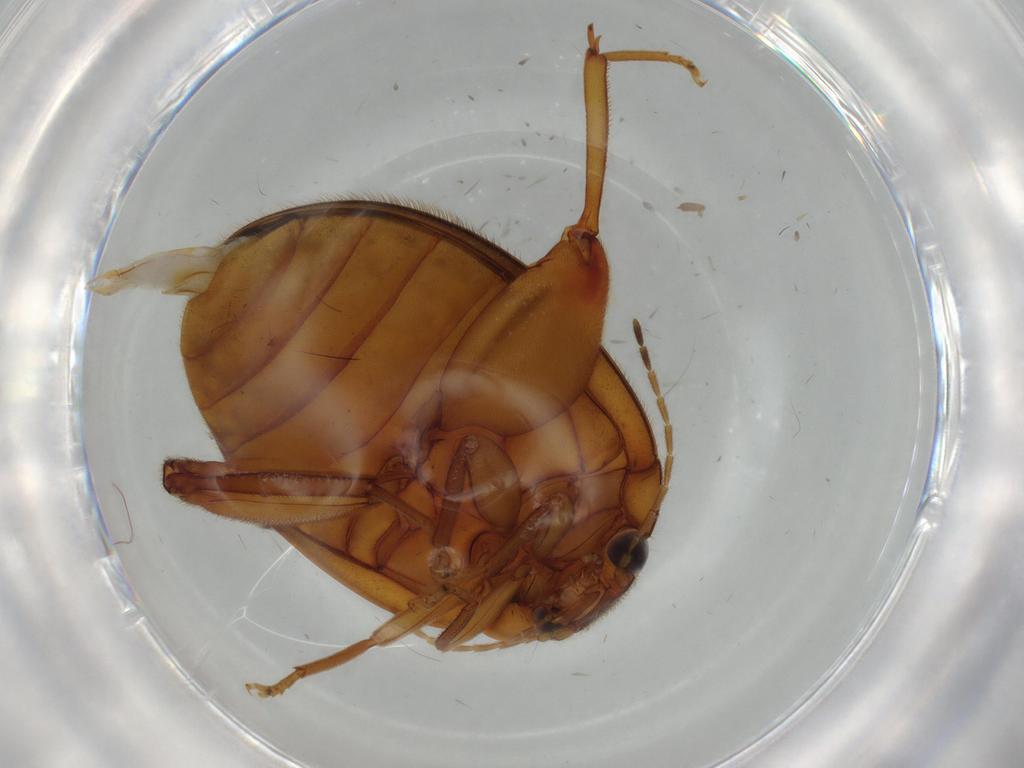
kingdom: Animalia
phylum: Arthropoda
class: Insecta
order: Coleoptera
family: Scirtidae
